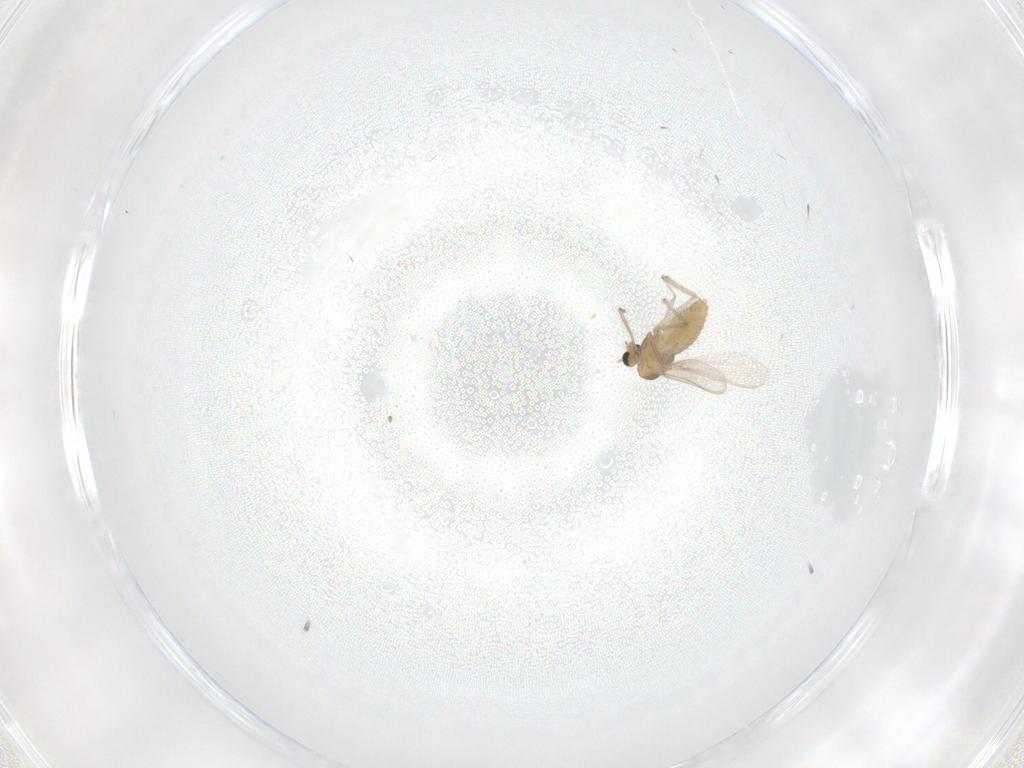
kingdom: Animalia
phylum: Arthropoda
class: Insecta
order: Diptera
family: Chironomidae
